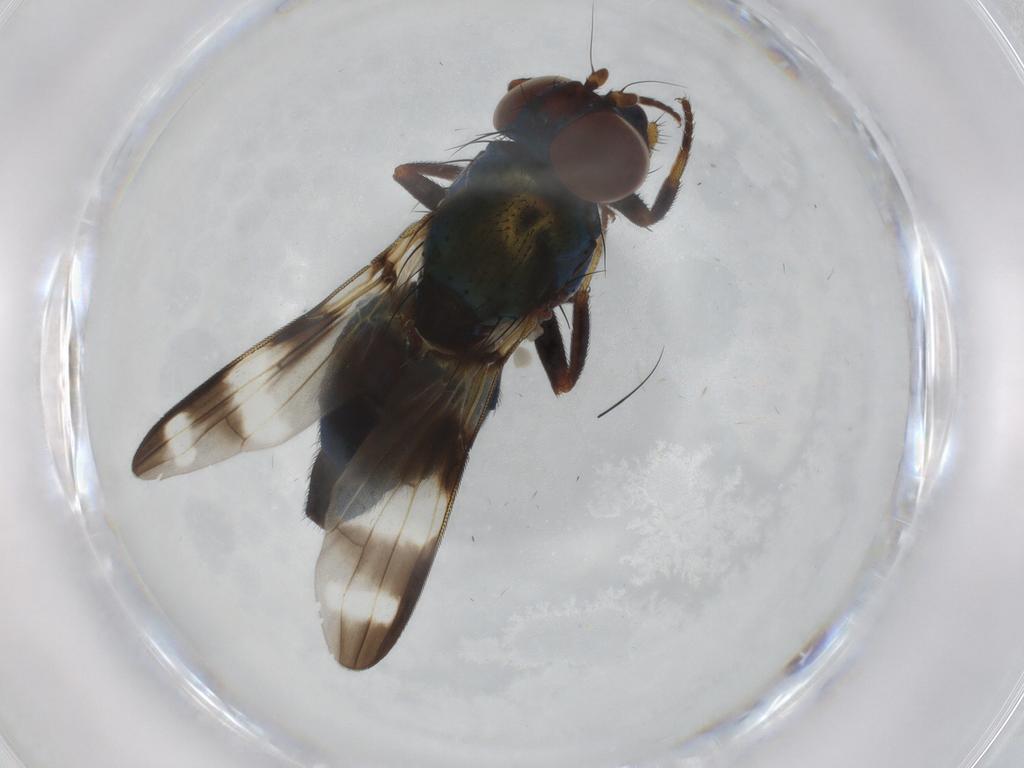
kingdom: Animalia
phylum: Arthropoda
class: Insecta
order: Diptera
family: Ulidiidae
